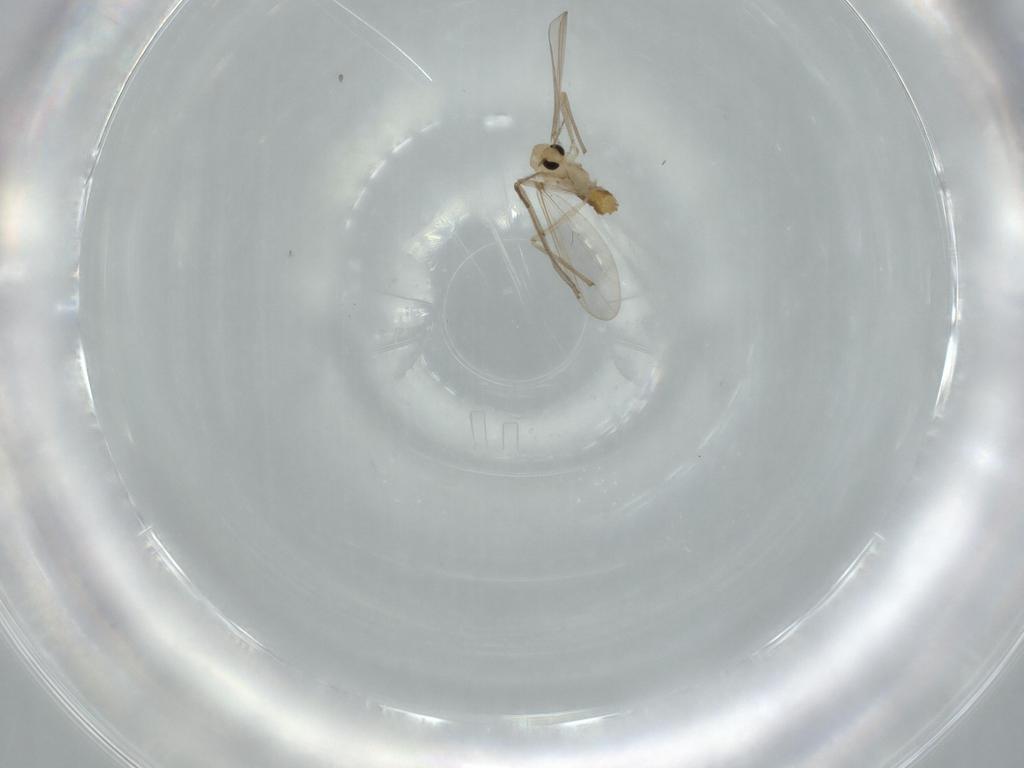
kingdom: Animalia
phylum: Arthropoda
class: Insecta
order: Diptera
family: Chironomidae
